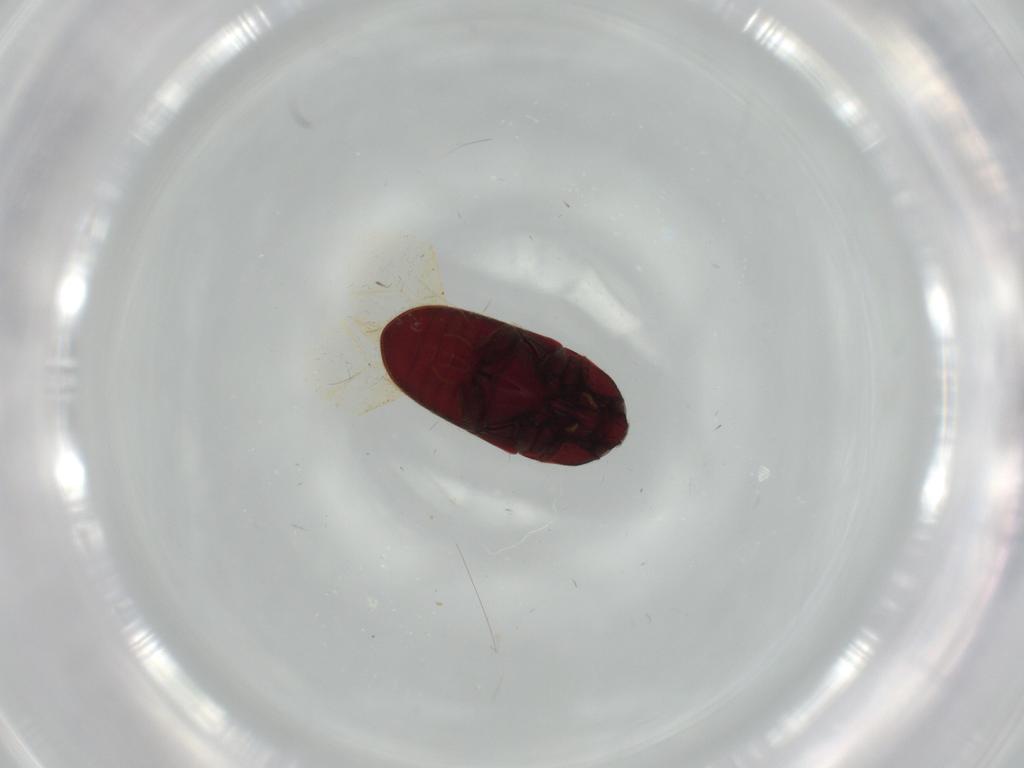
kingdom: Animalia
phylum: Arthropoda
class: Insecta
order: Coleoptera
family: Throscidae
